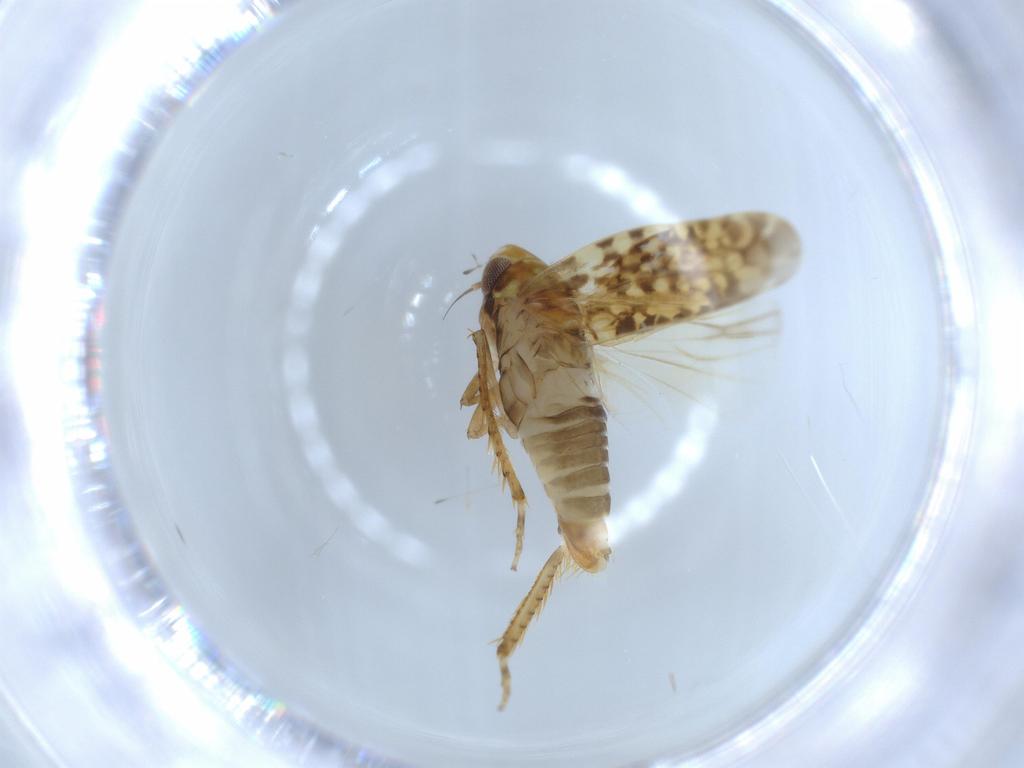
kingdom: Animalia
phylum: Arthropoda
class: Insecta
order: Hemiptera
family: Cicadellidae
